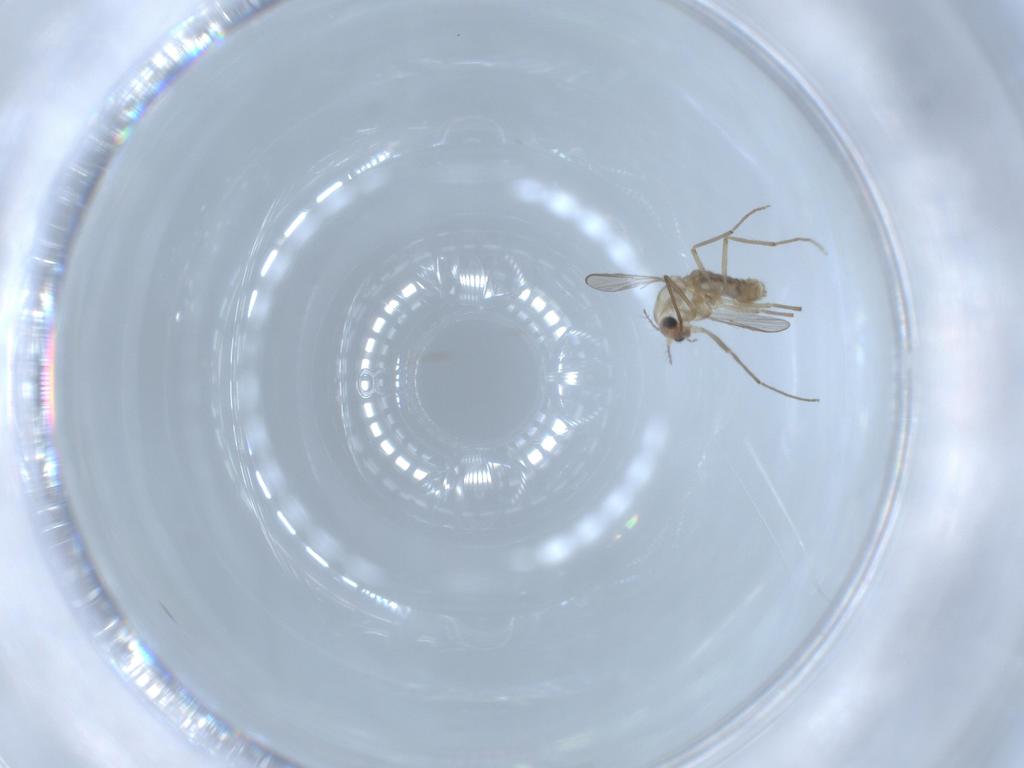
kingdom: Animalia
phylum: Arthropoda
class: Insecta
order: Diptera
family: Chironomidae
